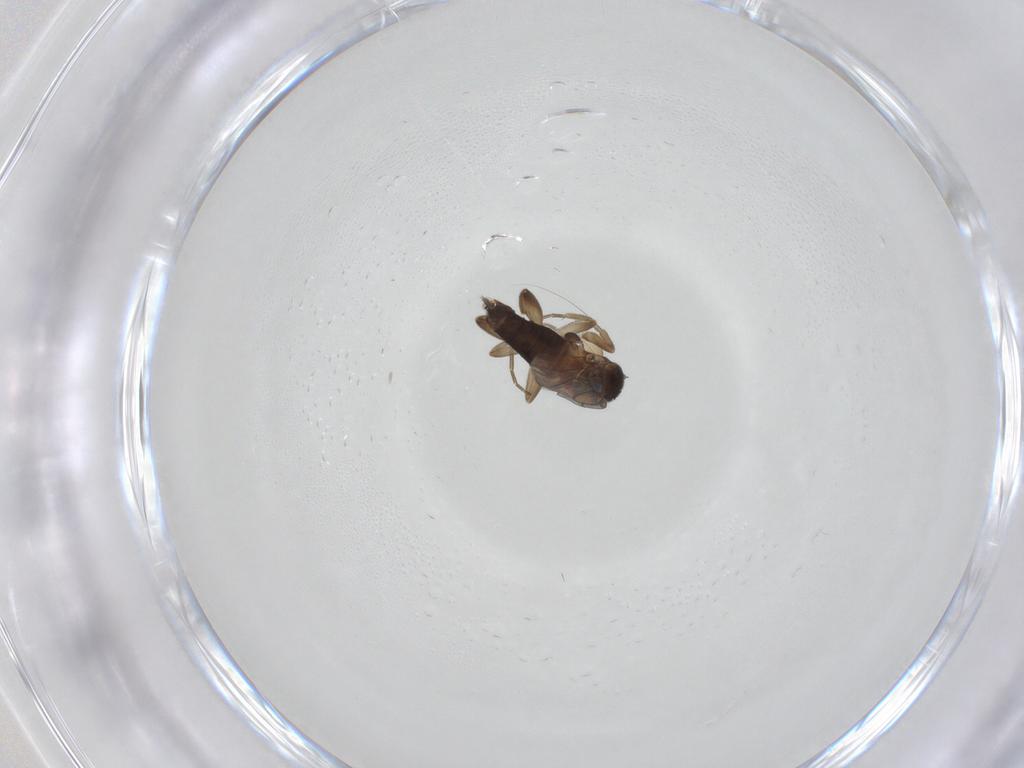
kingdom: Animalia
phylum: Arthropoda
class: Insecta
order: Diptera
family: Phoridae
